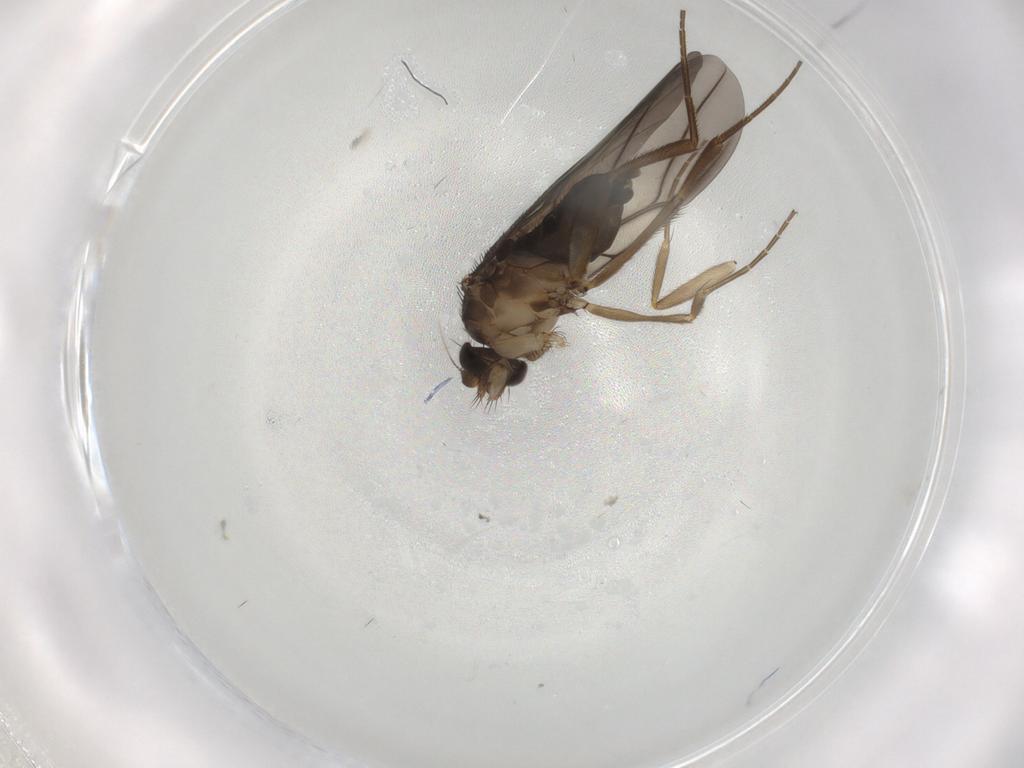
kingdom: Animalia
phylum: Arthropoda
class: Insecta
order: Diptera
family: Phoridae
